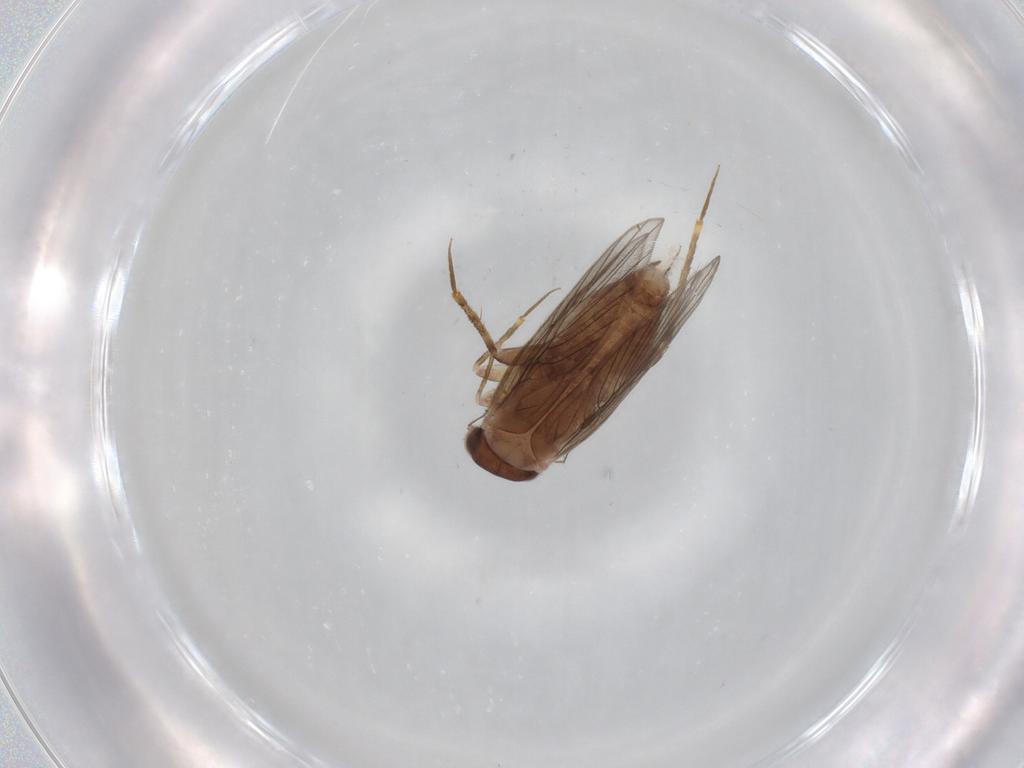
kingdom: Animalia
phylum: Arthropoda
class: Insecta
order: Psocodea
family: Lepidopsocidae
